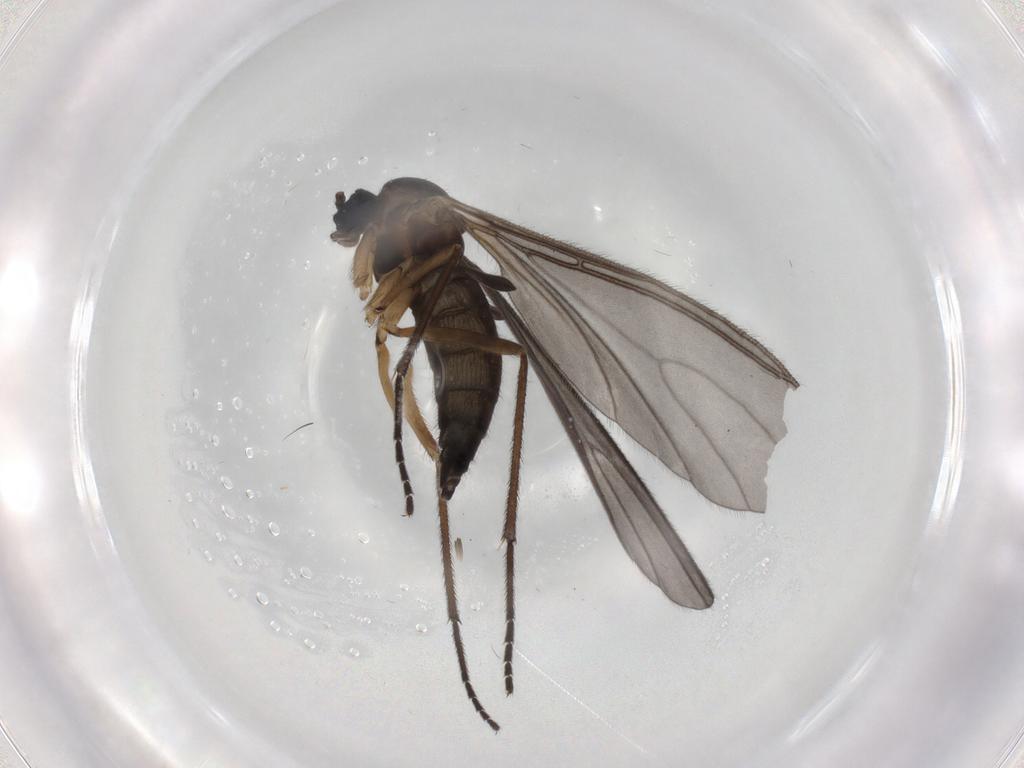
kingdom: Animalia
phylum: Arthropoda
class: Insecta
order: Diptera
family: Sciaridae
